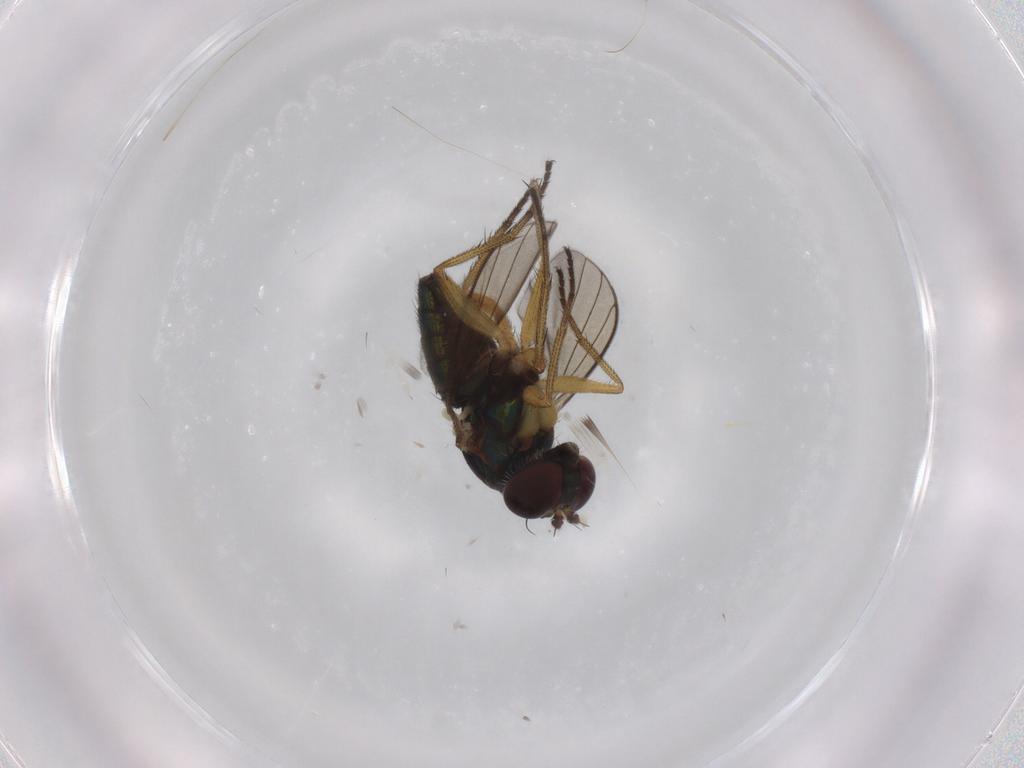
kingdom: Animalia
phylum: Arthropoda
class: Insecta
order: Diptera
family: Dolichopodidae
